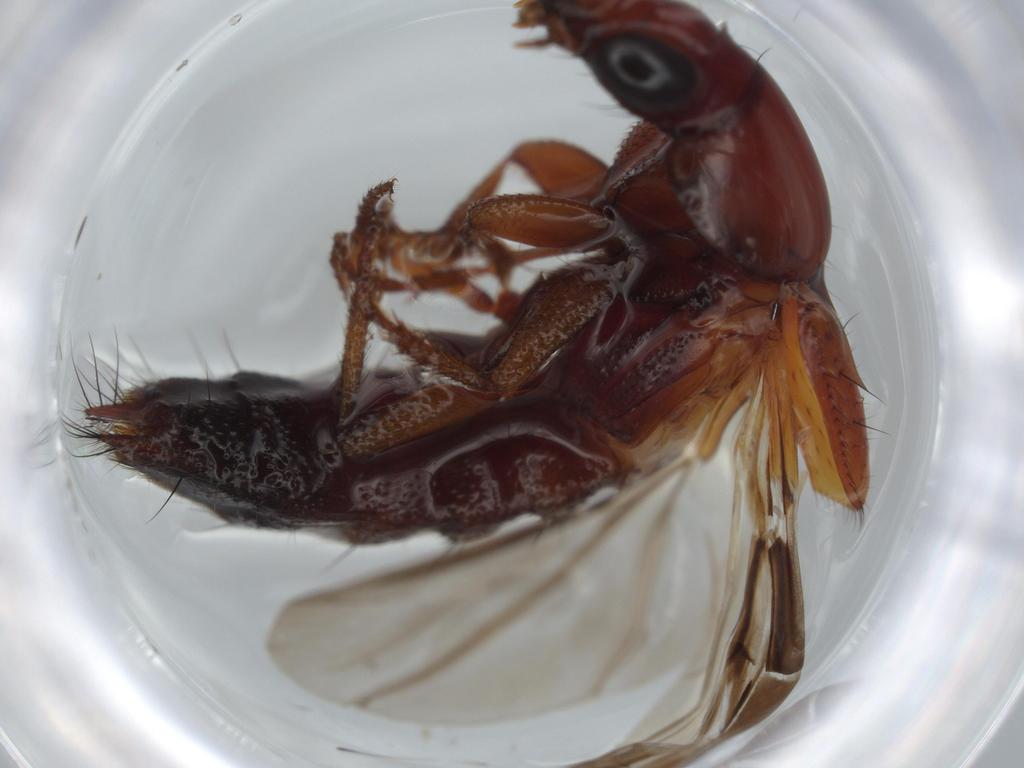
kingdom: Animalia
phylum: Arthropoda
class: Insecta
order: Coleoptera
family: Staphylinidae
